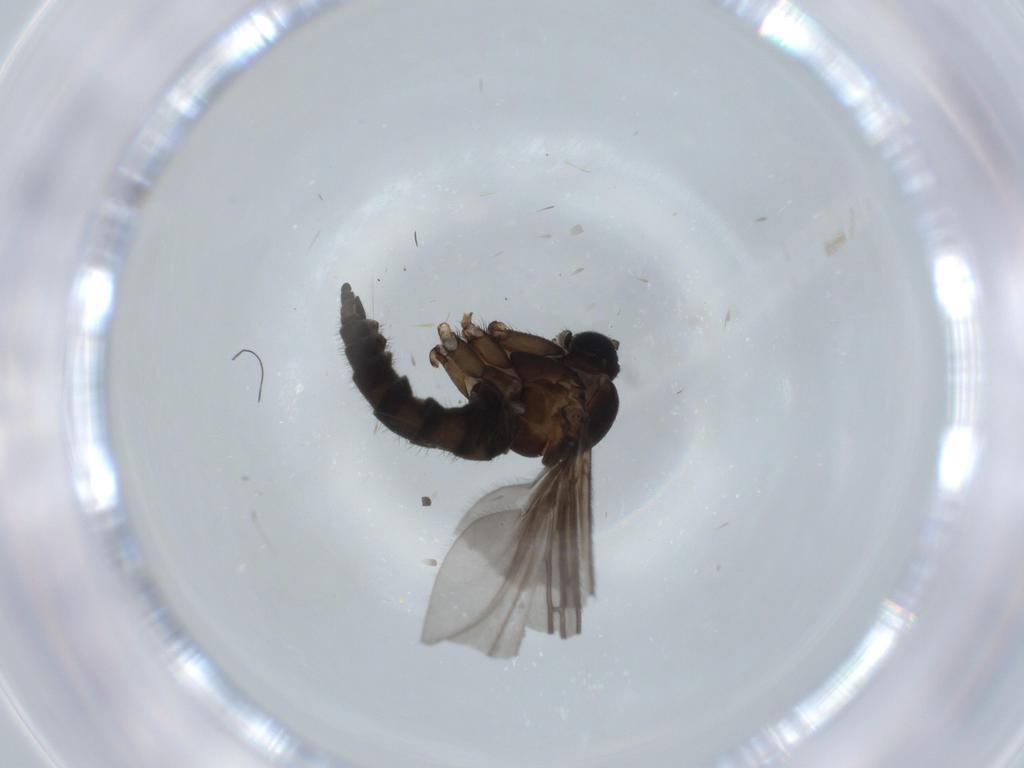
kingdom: Animalia
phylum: Arthropoda
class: Insecta
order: Diptera
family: Sciaridae
